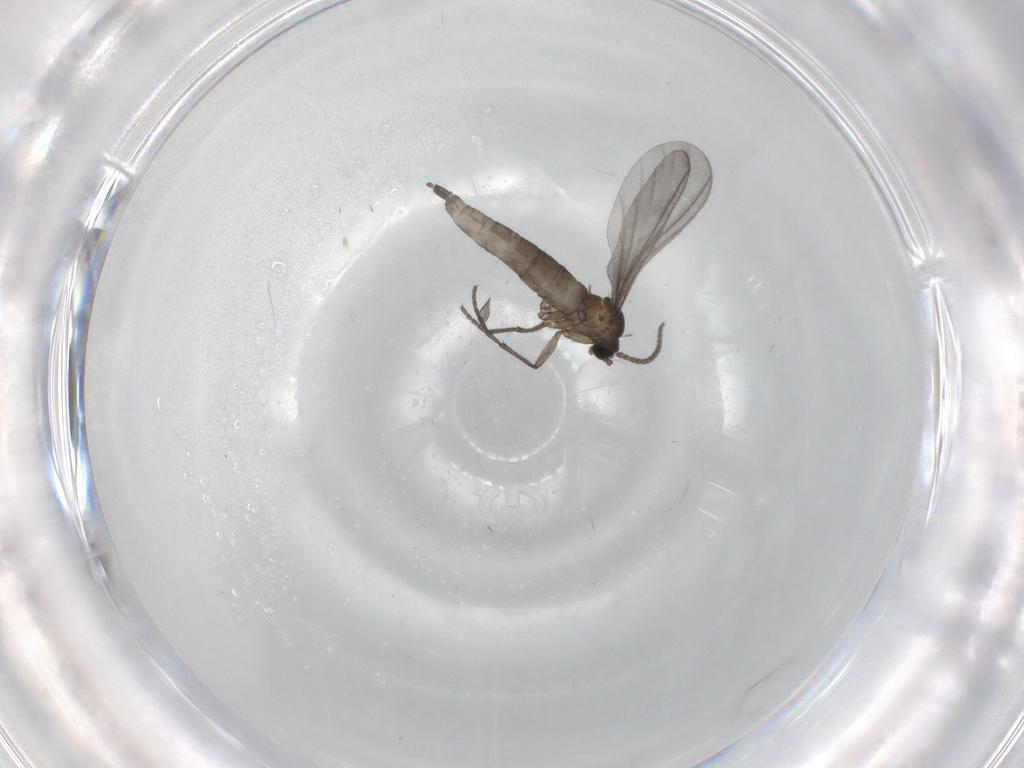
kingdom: Animalia
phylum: Arthropoda
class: Insecta
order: Diptera
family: Sciaridae
